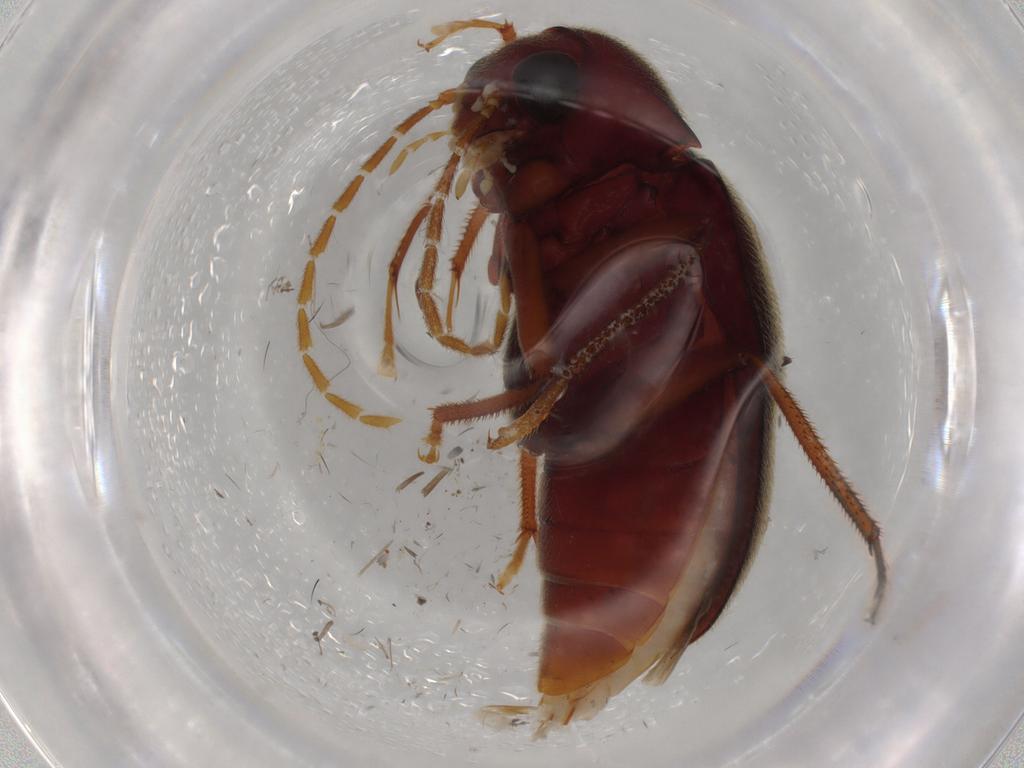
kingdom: Animalia
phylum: Arthropoda
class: Insecta
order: Coleoptera
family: Ptilodactylidae
